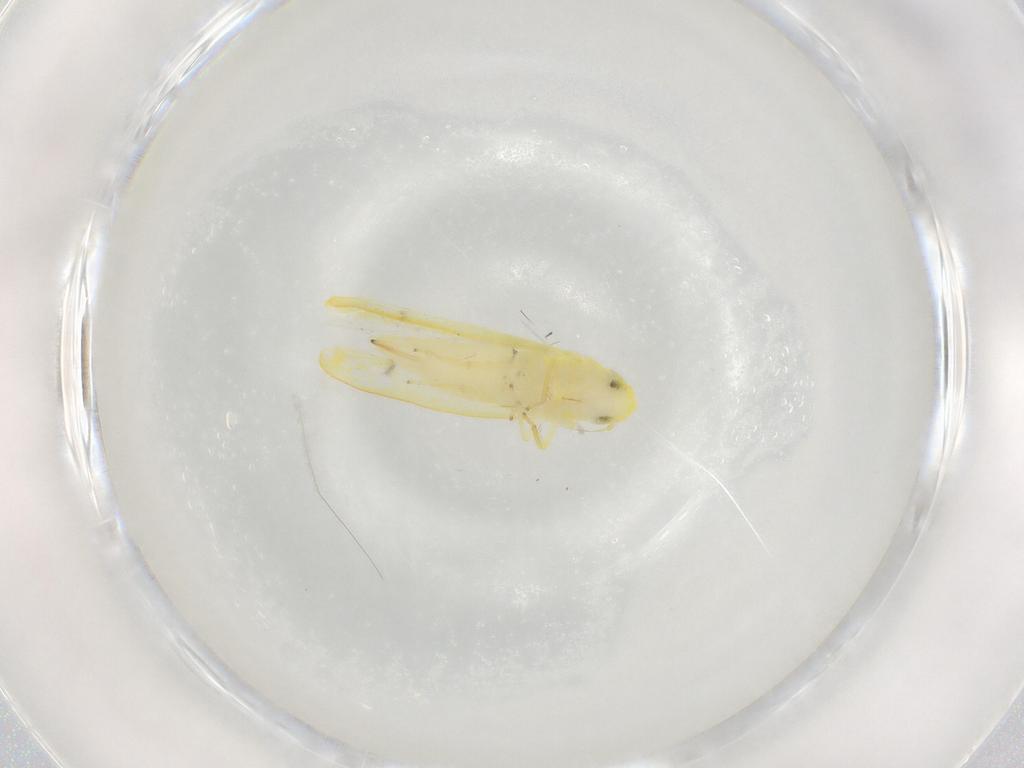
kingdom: Animalia
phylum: Arthropoda
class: Insecta
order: Hemiptera
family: Cicadellidae
